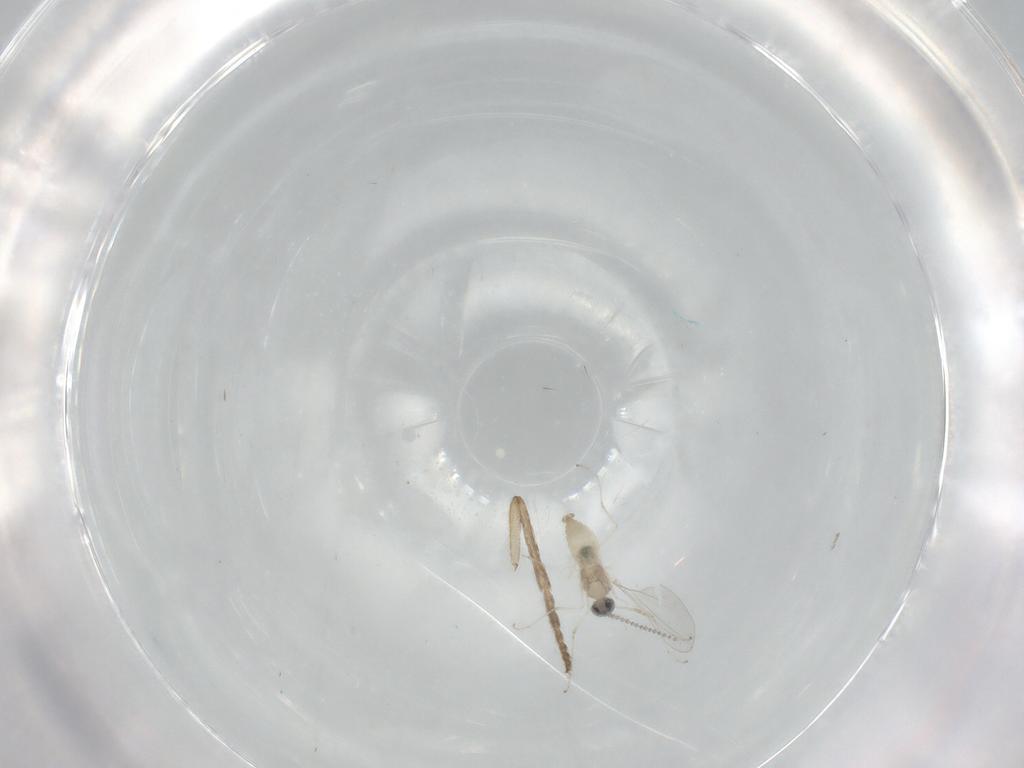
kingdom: Animalia
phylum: Arthropoda
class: Insecta
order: Diptera
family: Psychodidae
